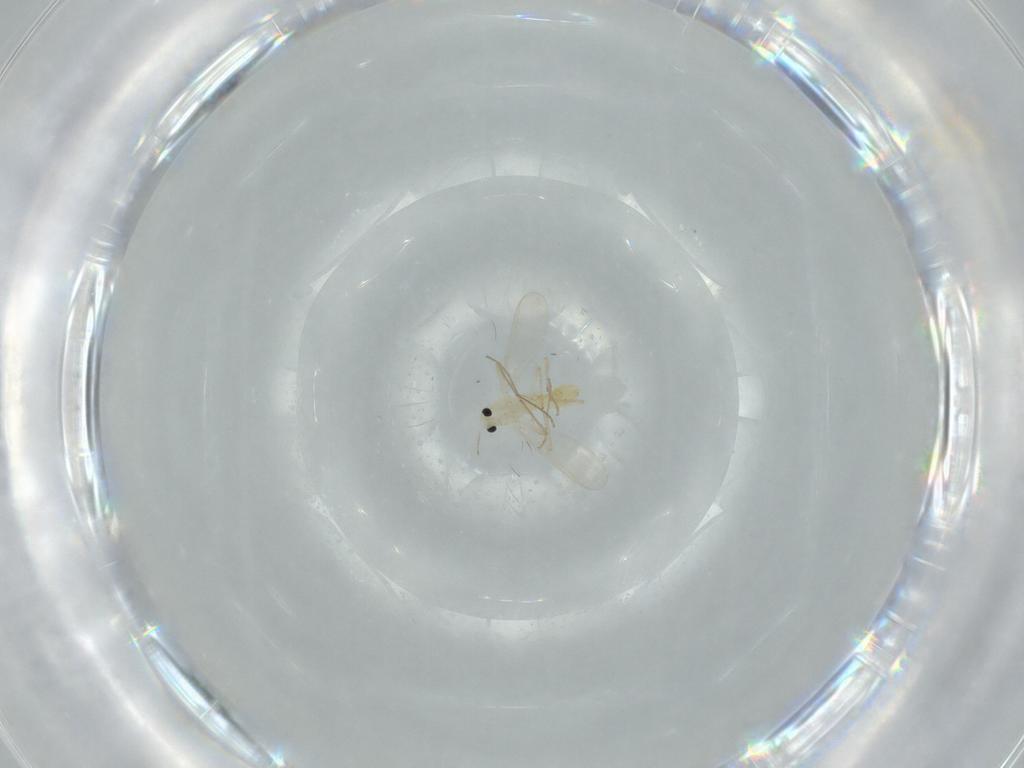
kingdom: Animalia
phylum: Arthropoda
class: Insecta
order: Diptera
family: Chironomidae
